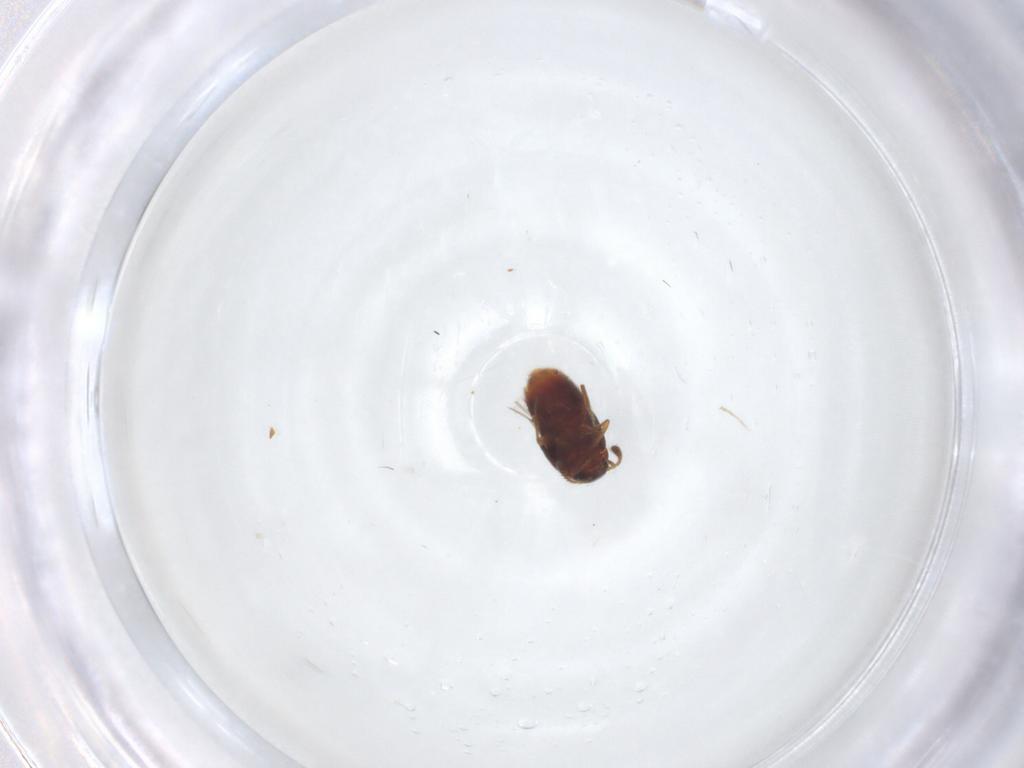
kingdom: Animalia
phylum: Arthropoda
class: Insecta
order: Coleoptera
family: Staphylinidae
